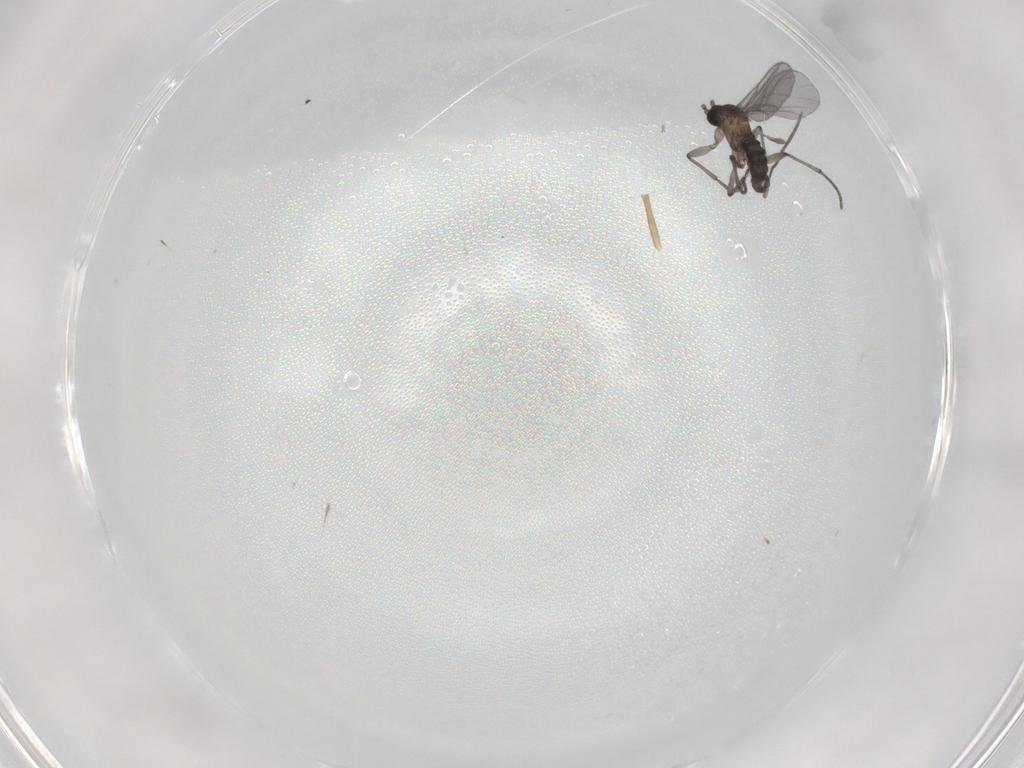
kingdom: Animalia
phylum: Arthropoda
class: Insecta
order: Diptera
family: Sciaridae
